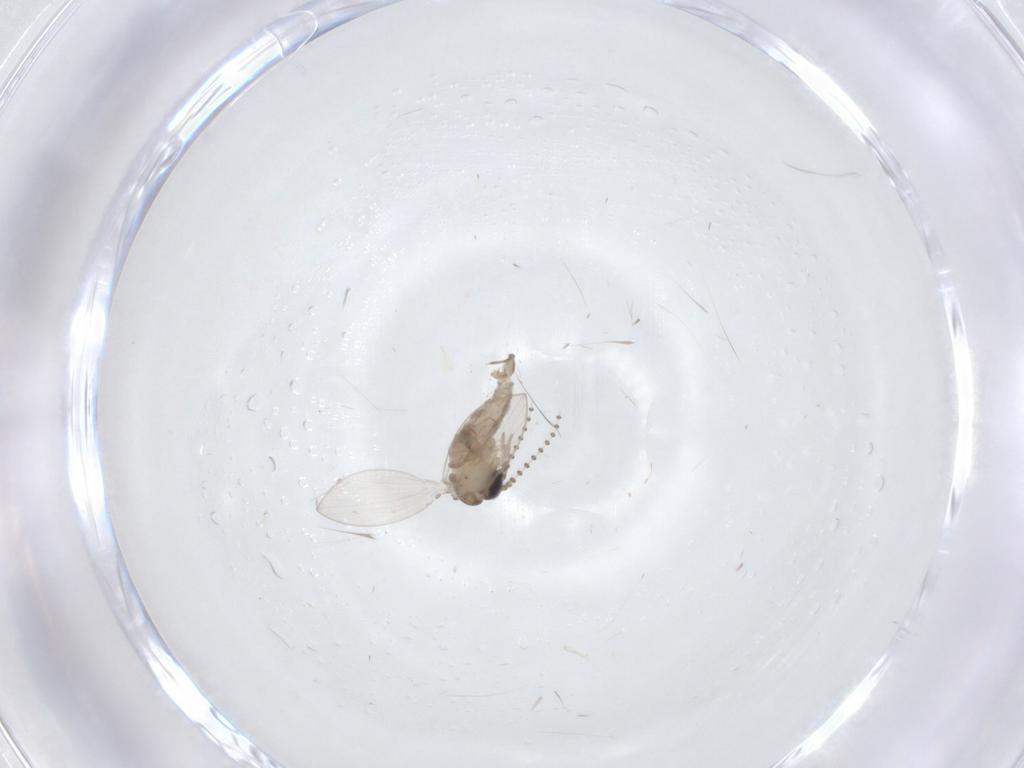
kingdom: Animalia
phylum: Arthropoda
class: Insecta
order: Diptera
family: Psychodidae
